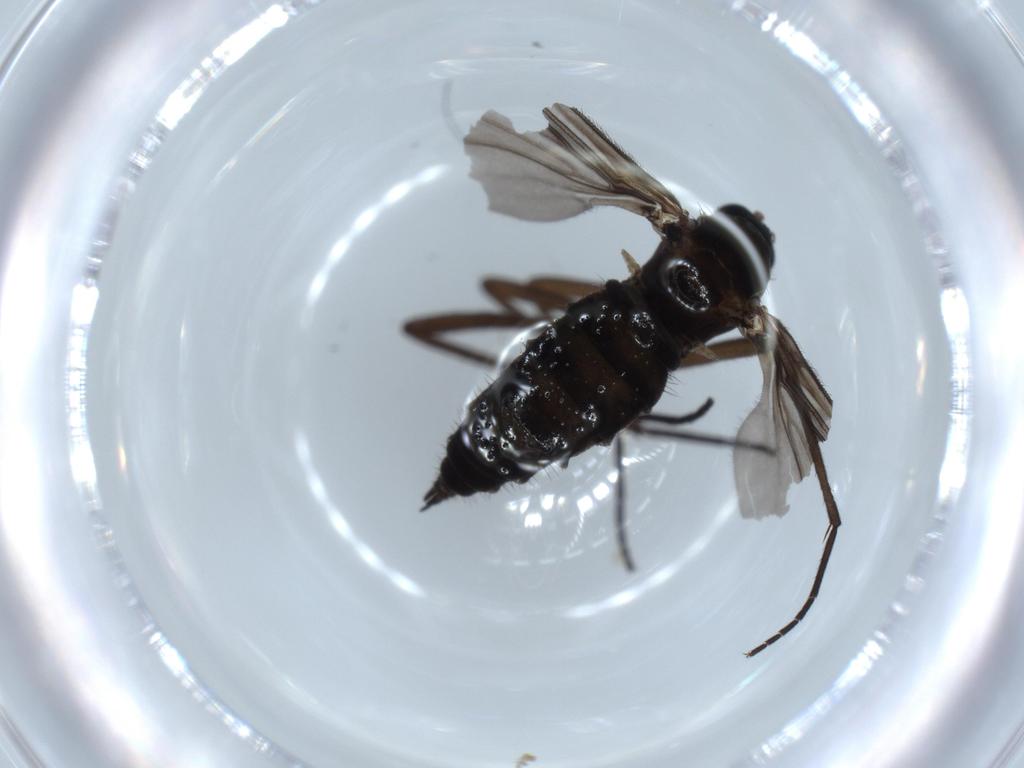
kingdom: Animalia
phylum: Arthropoda
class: Insecta
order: Diptera
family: Sciaridae
